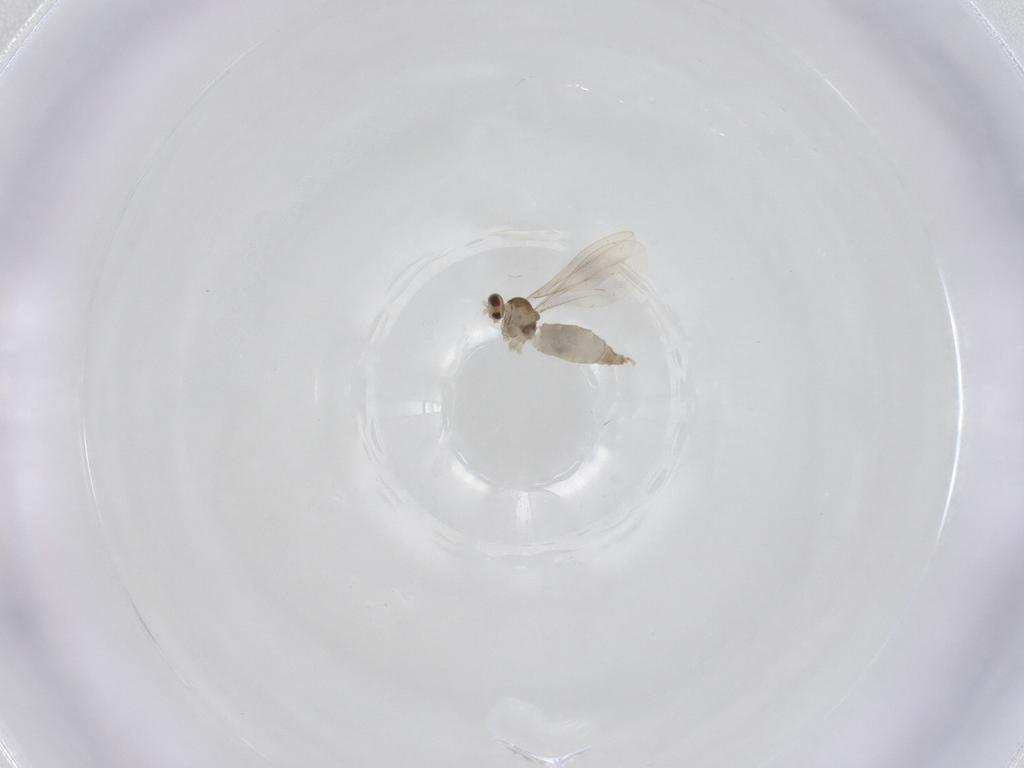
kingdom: Animalia
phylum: Arthropoda
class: Insecta
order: Diptera
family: Cecidomyiidae
